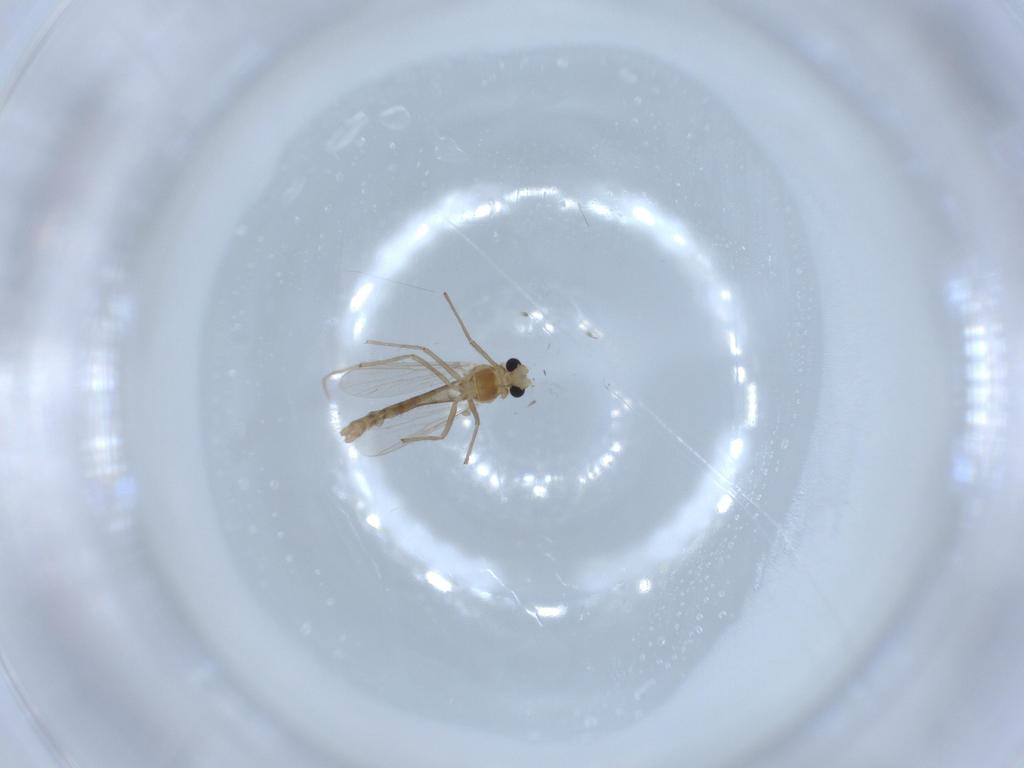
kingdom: Animalia
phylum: Arthropoda
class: Insecta
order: Diptera
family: Chironomidae
